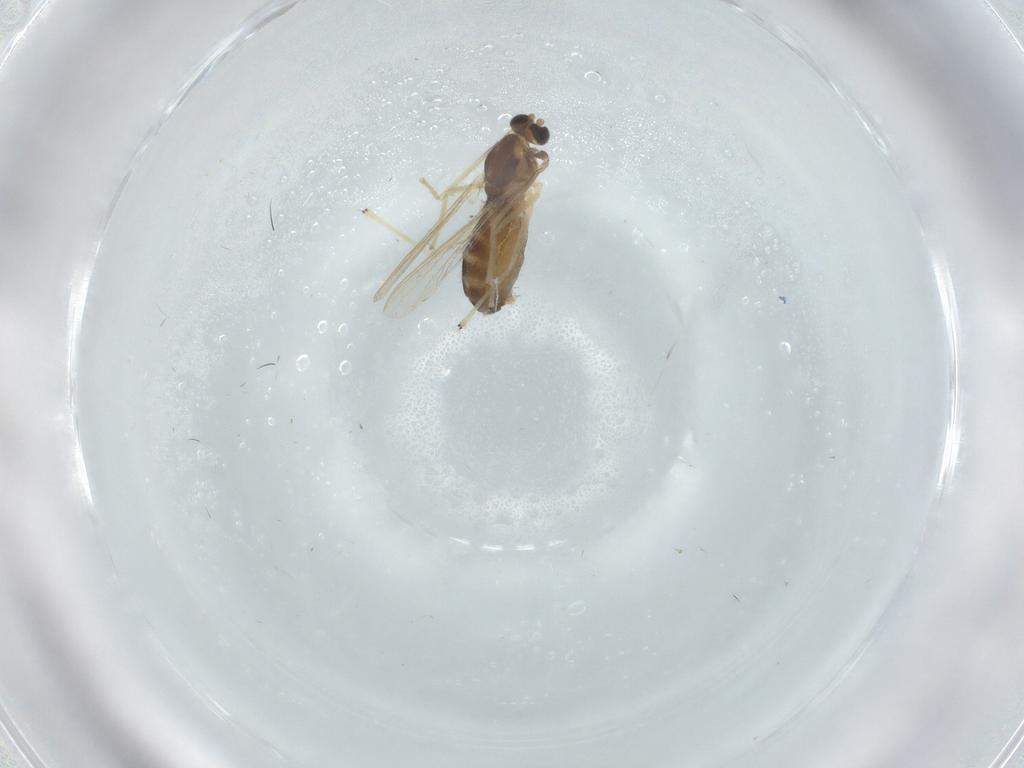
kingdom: Animalia
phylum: Arthropoda
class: Insecta
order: Diptera
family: Chironomidae
